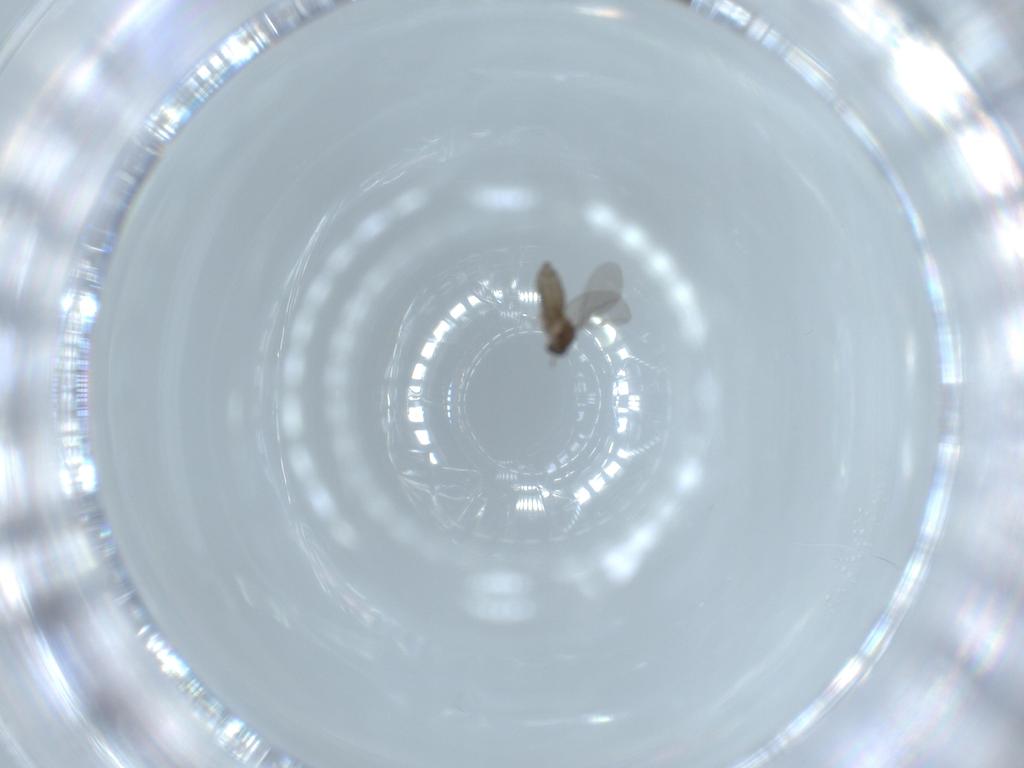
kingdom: Animalia
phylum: Arthropoda
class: Insecta
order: Diptera
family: Cecidomyiidae
